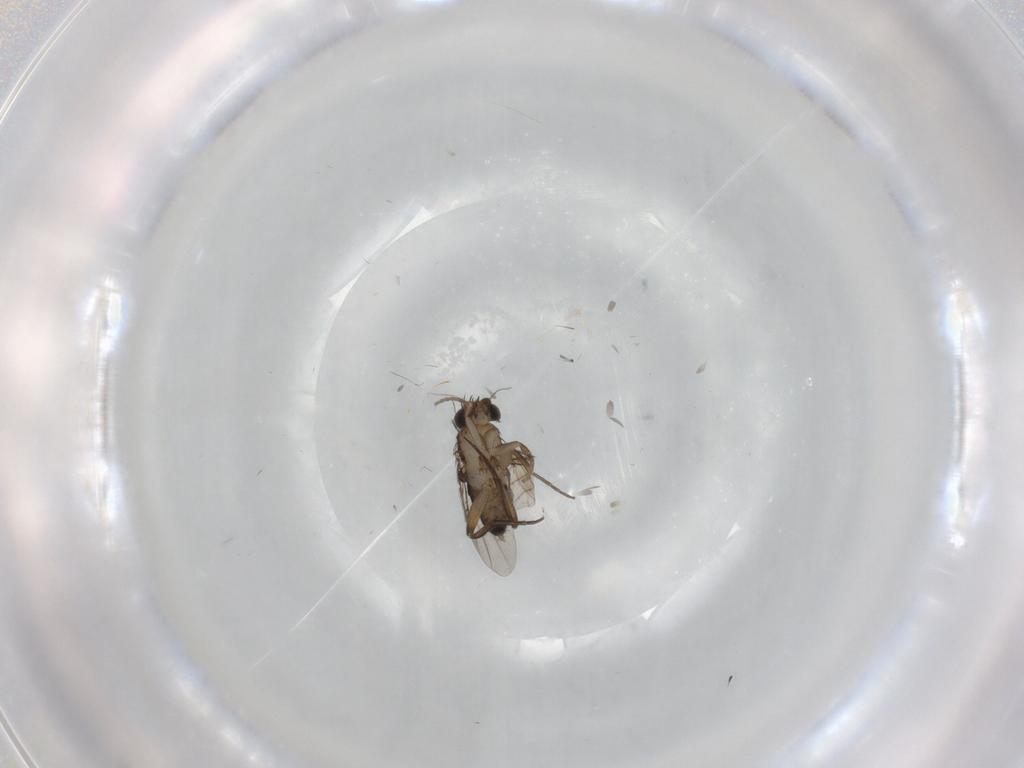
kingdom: Animalia
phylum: Arthropoda
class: Insecta
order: Diptera
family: Phoridae
